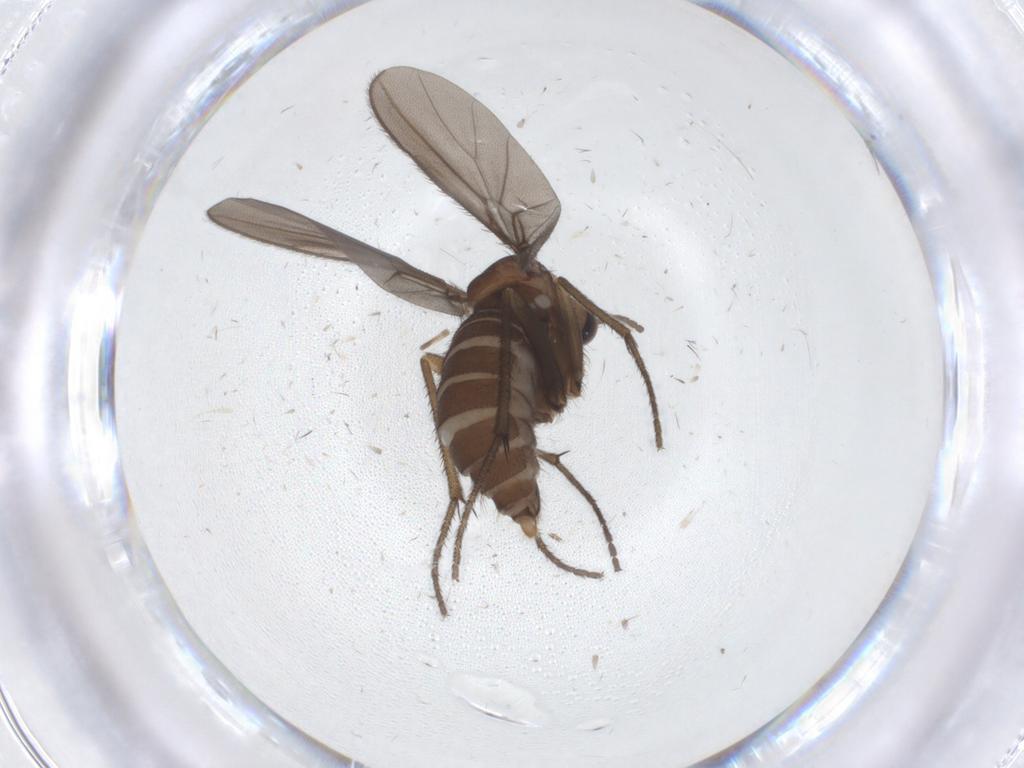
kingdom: Animalia
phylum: Arthropoda
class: Insecta
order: Diptera
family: Diadocidiidae
